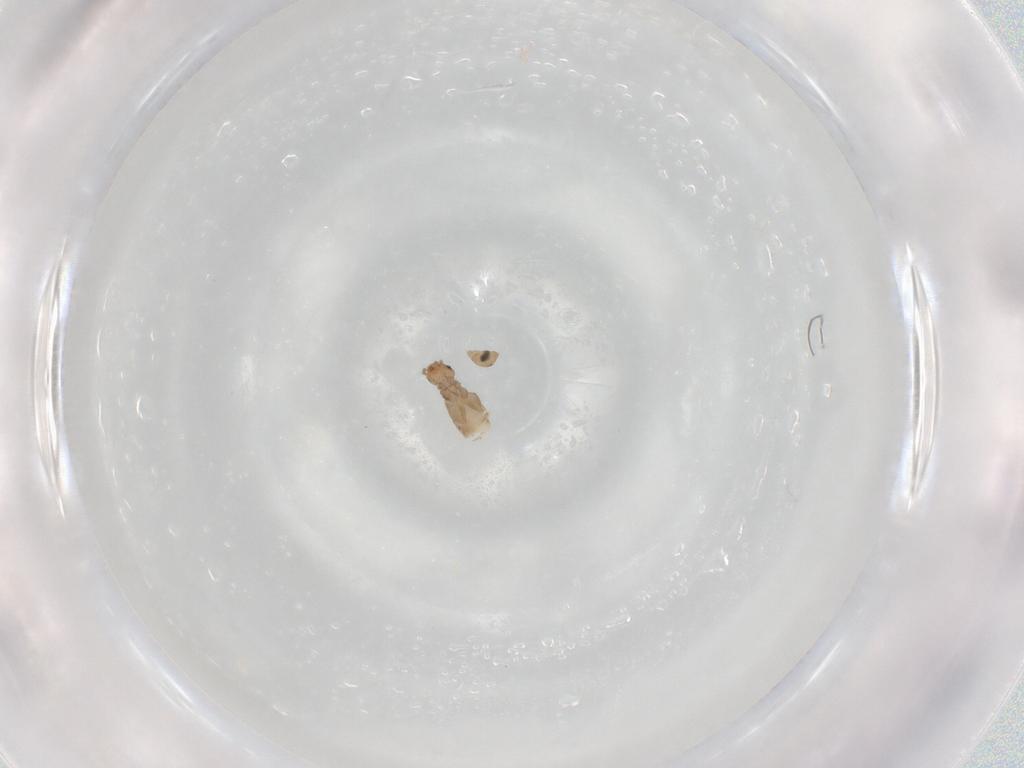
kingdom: Animalia
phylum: Arthropoda
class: Insecta
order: Psocodea
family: Liposcelididae
